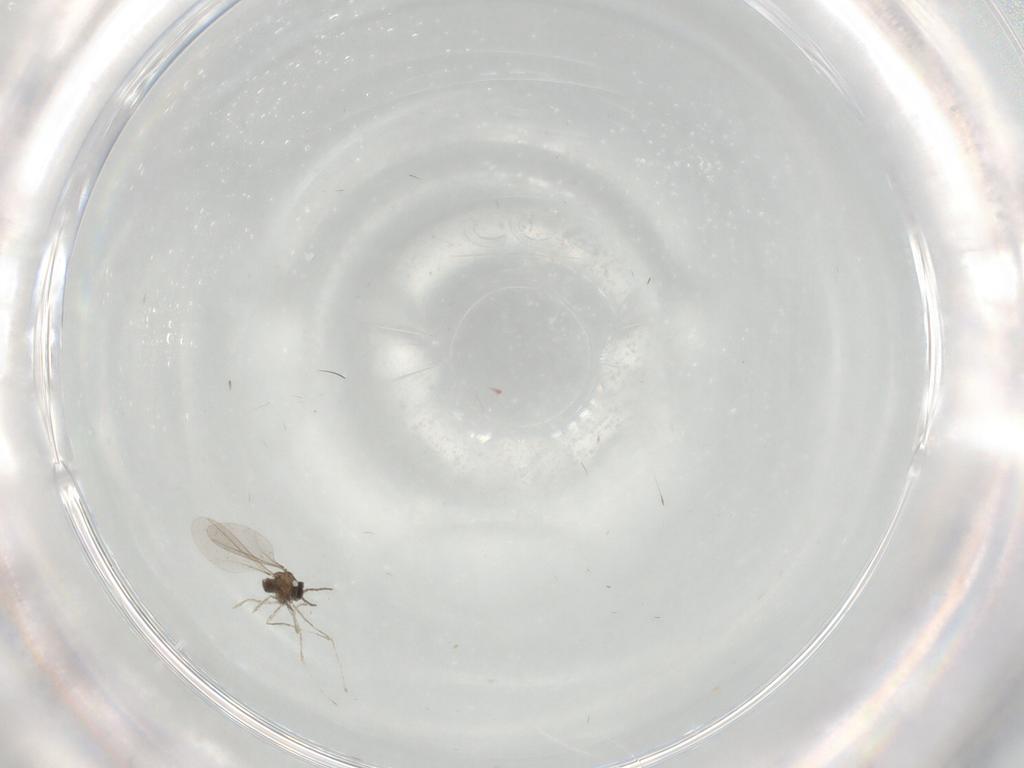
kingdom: Animalia
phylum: Arthropoda
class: Insecta
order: Diptera
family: Cecidomyiidae
